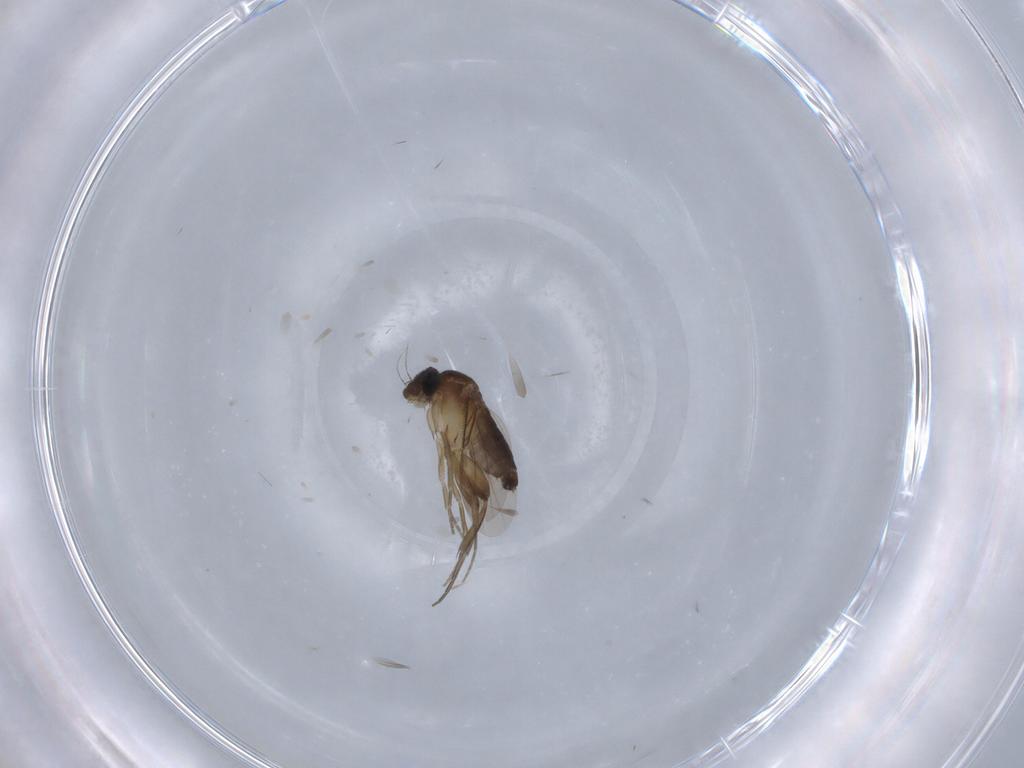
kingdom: Animalia
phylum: Arthropoda
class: Insecta
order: Diptera
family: Phoridae
